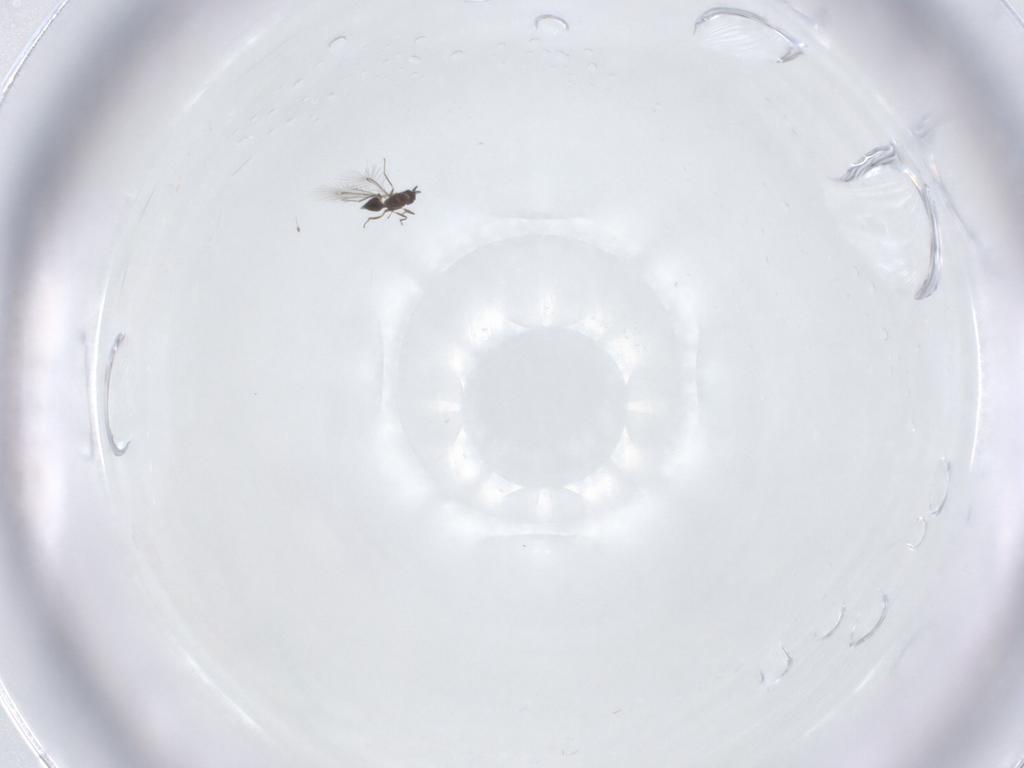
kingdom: Animalia
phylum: Arthropoda
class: Insecta
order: Hymenoptera
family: Mymaridae
